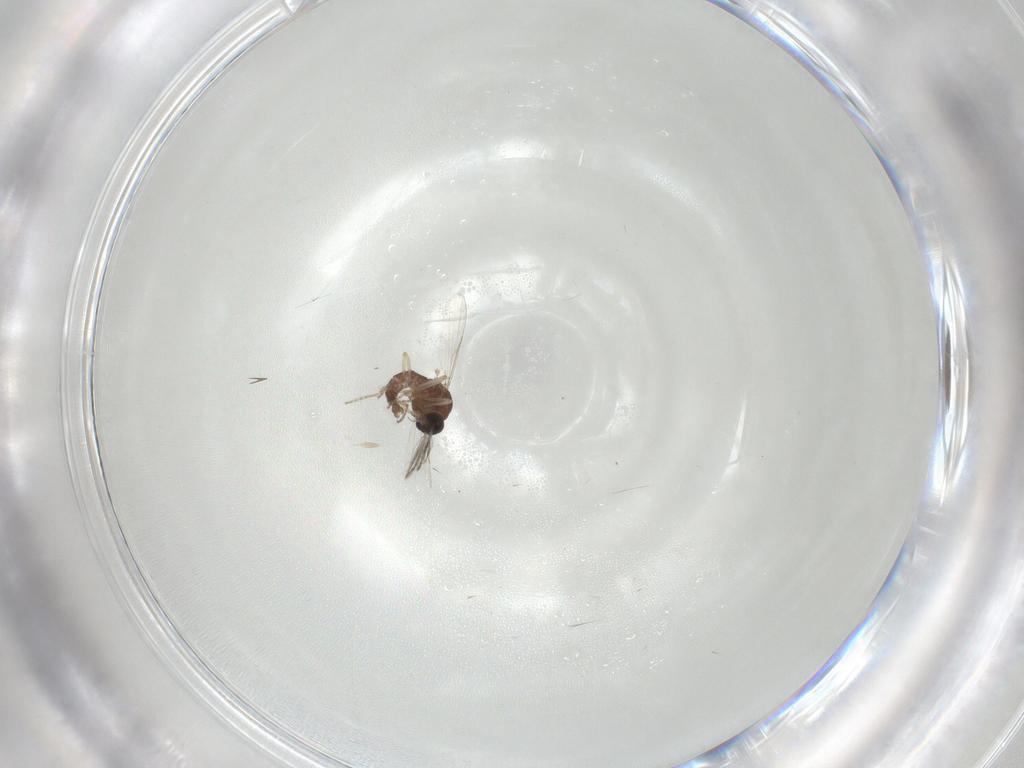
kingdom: Animalia
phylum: Arthropoda
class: Insecta
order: Diptera
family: Ceratopogonidae
